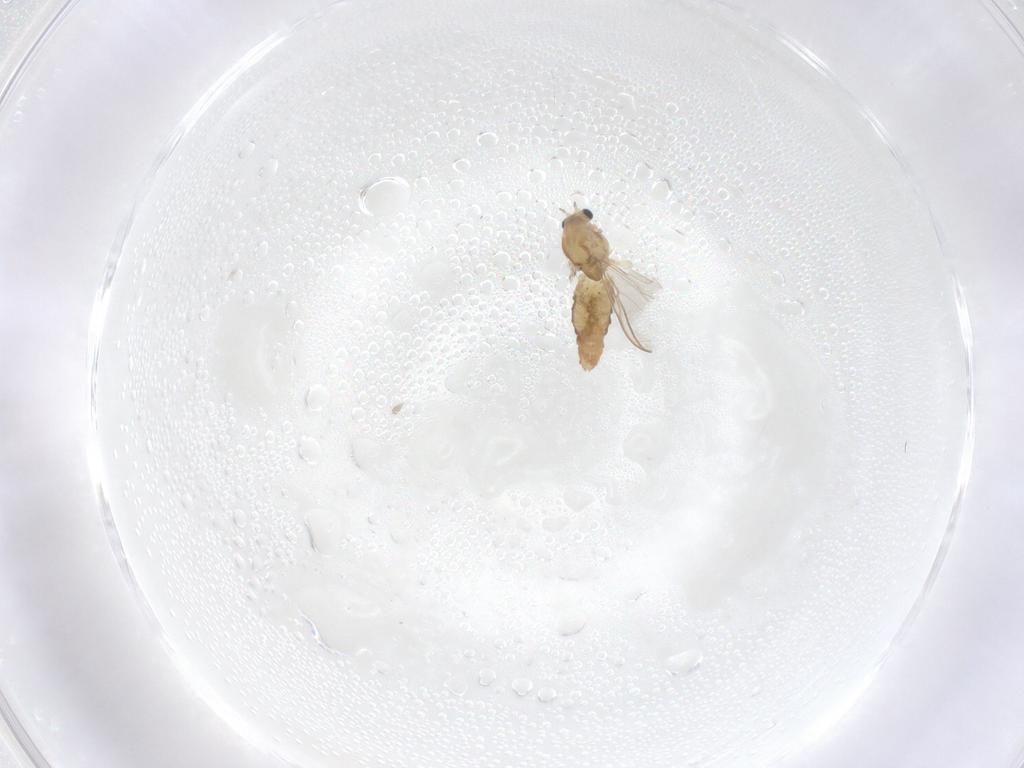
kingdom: Animalia
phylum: Arthropoda
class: Insecta
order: Diptera
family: Chironomidae
